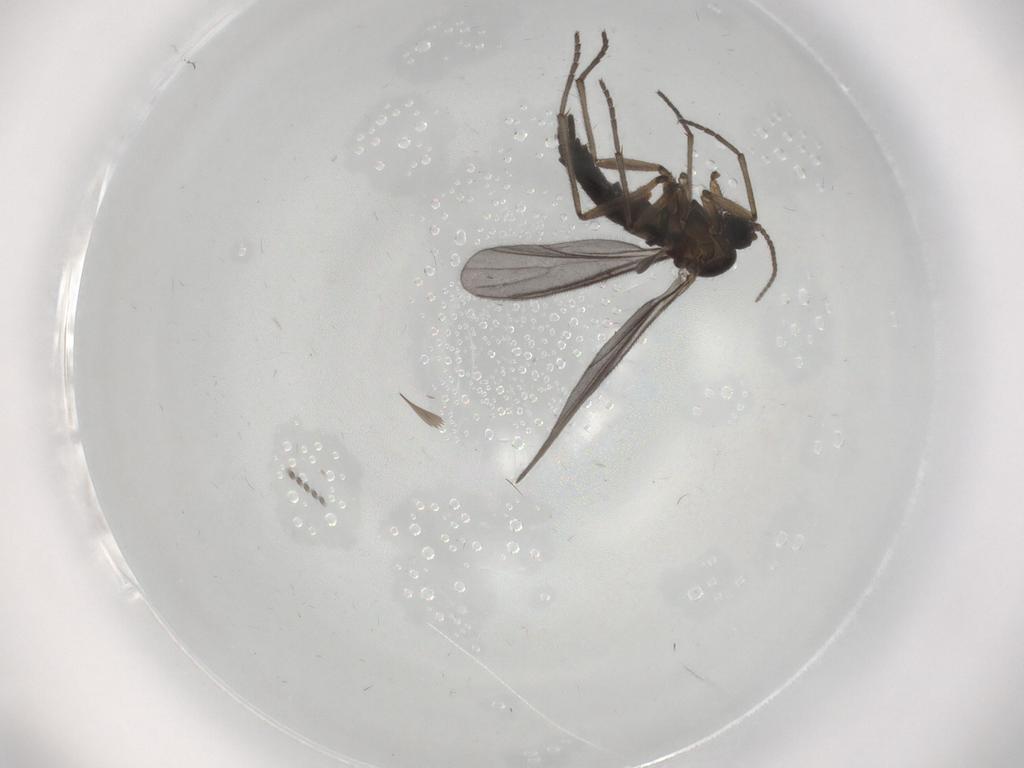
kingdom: Animalia
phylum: Arthropoda
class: Insecta
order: Diptera
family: Sciaridae
